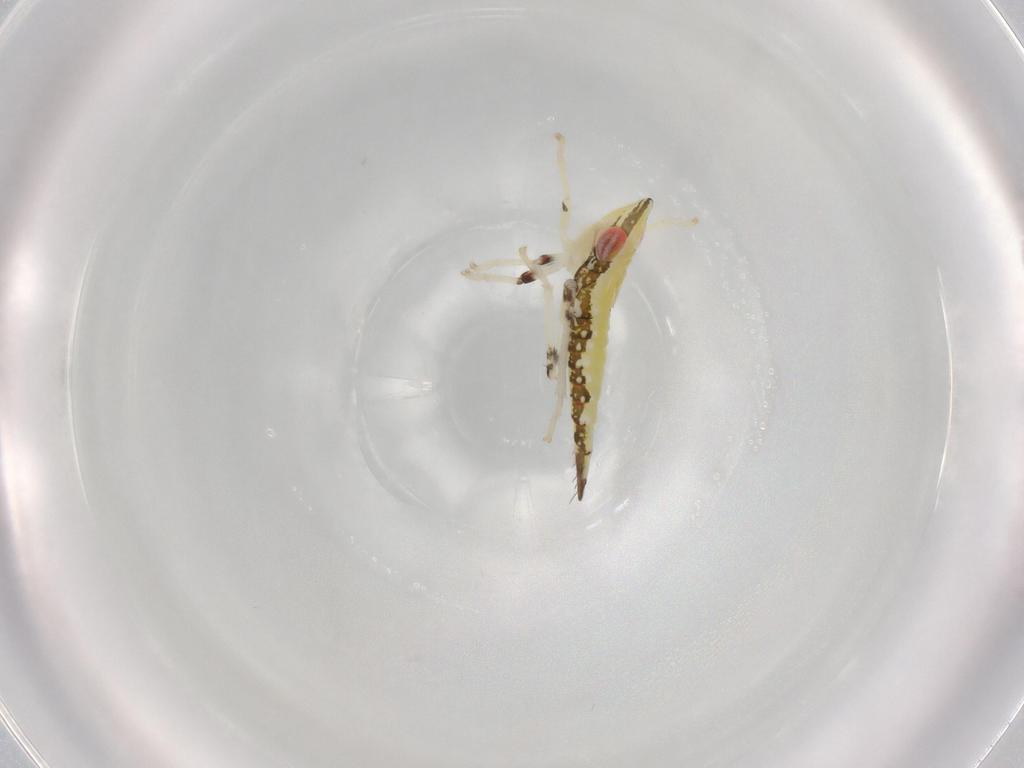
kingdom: Animalia
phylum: Arthropoda
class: Insecta
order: Hemiptera
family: Cicadellidae
